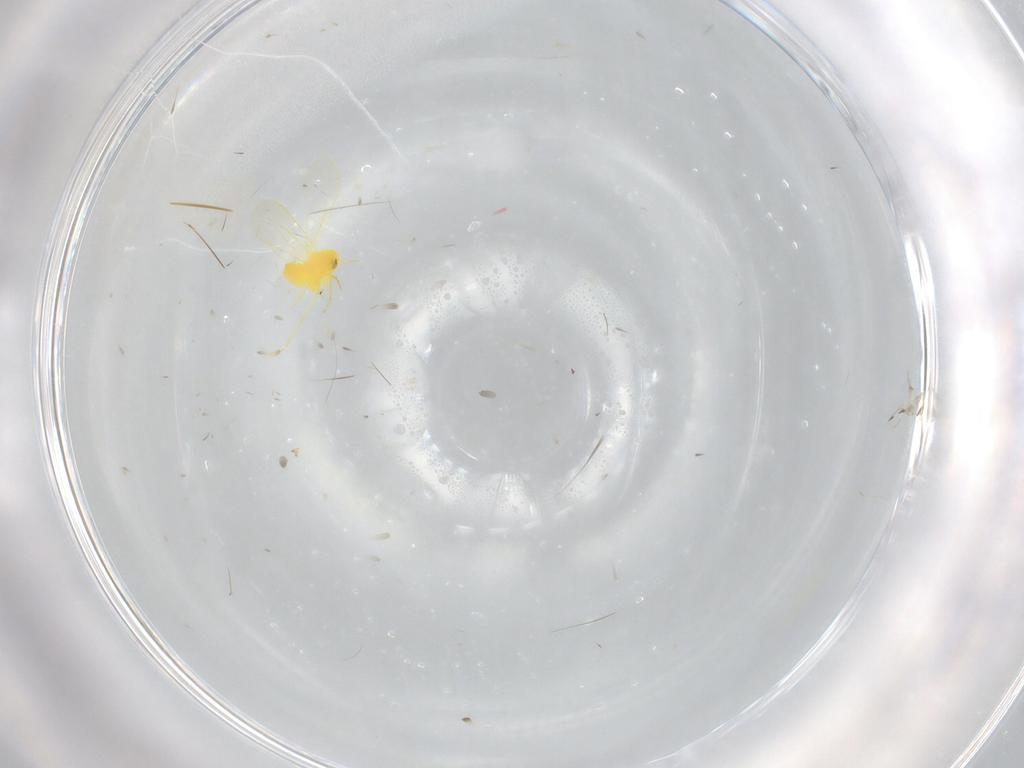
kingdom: Animalia
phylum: Arthropoda
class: Insecta
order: Hemiptera
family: Aleyrodidae
